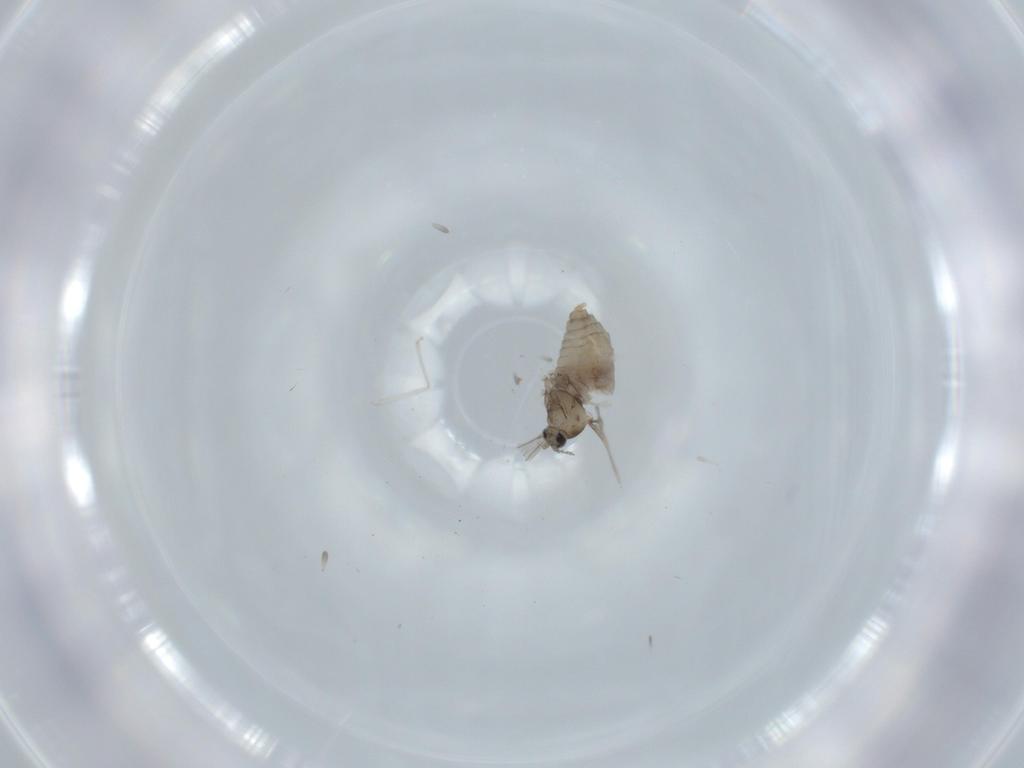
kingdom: Animalia
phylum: Arthropoda
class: Insecta
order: Diptera
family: Cecidomyiidae
